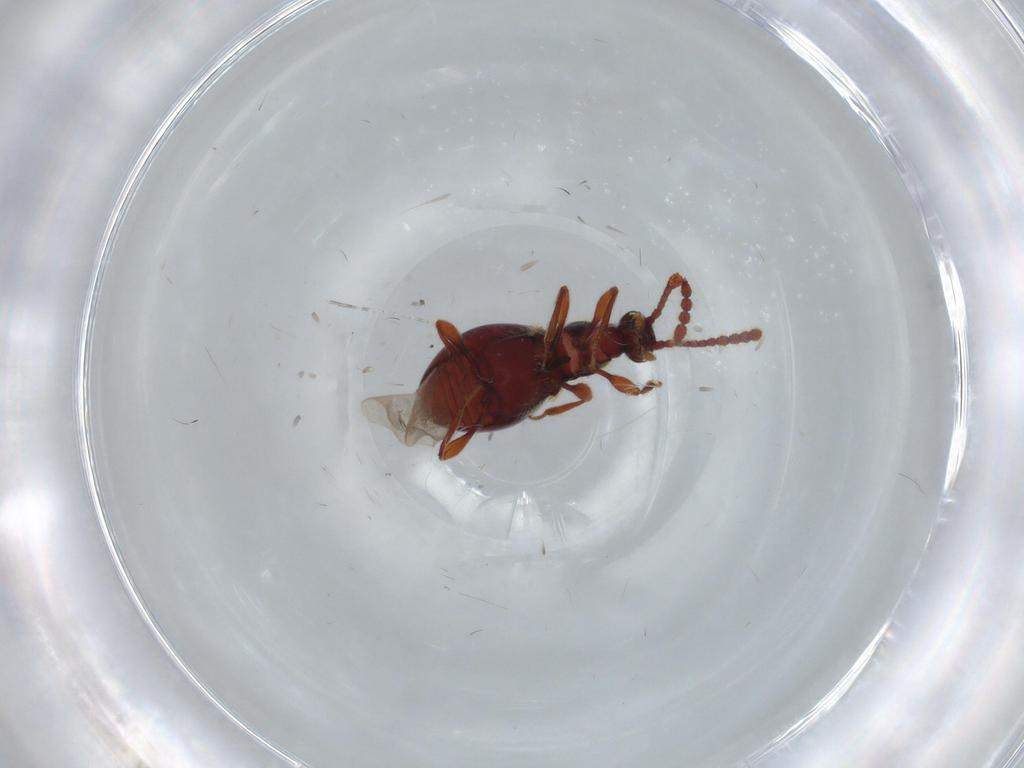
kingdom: Animalia
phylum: Arthropoda
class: Insecta
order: Coleoptera
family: Staphylinidae
